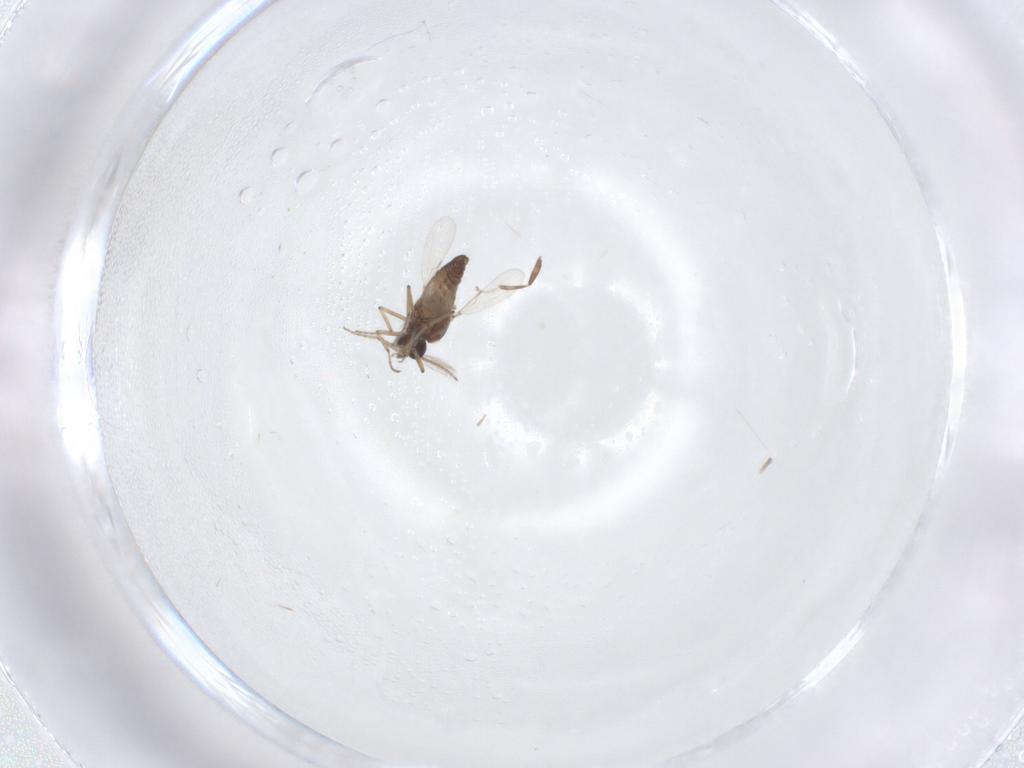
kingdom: Animalia
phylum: Arthropoda
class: Insecta
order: Diptera
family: Ceratopogonidae
